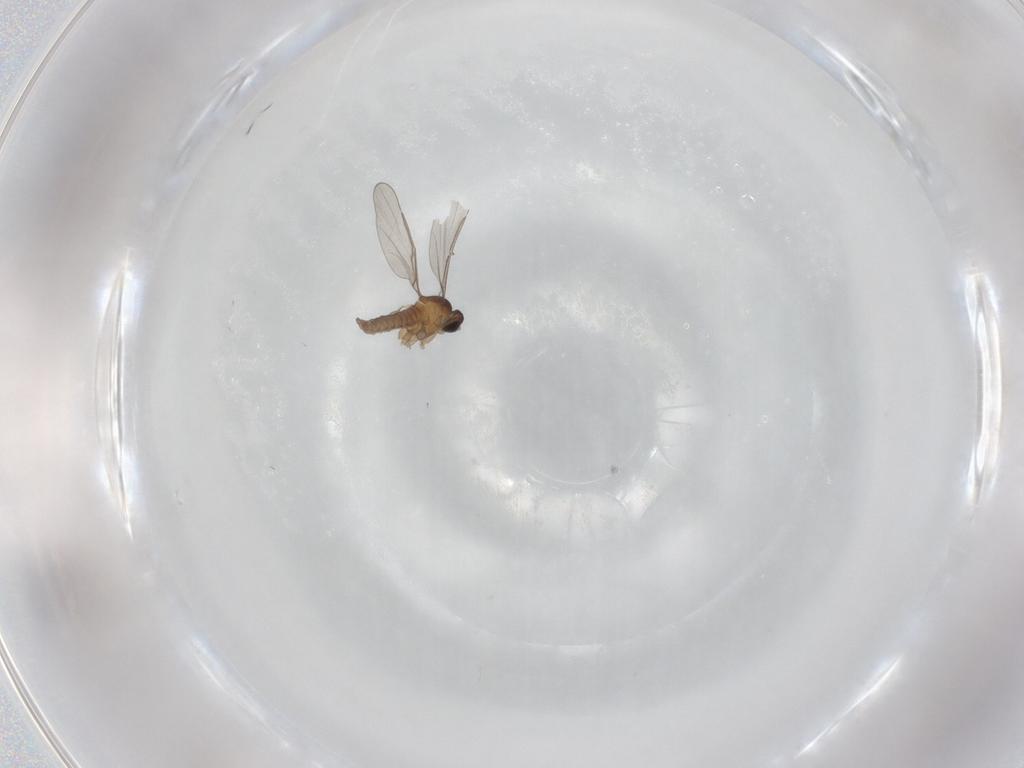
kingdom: Animalia
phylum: Arthropoda
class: Insecta
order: Diptera
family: Cecidomyiidae
